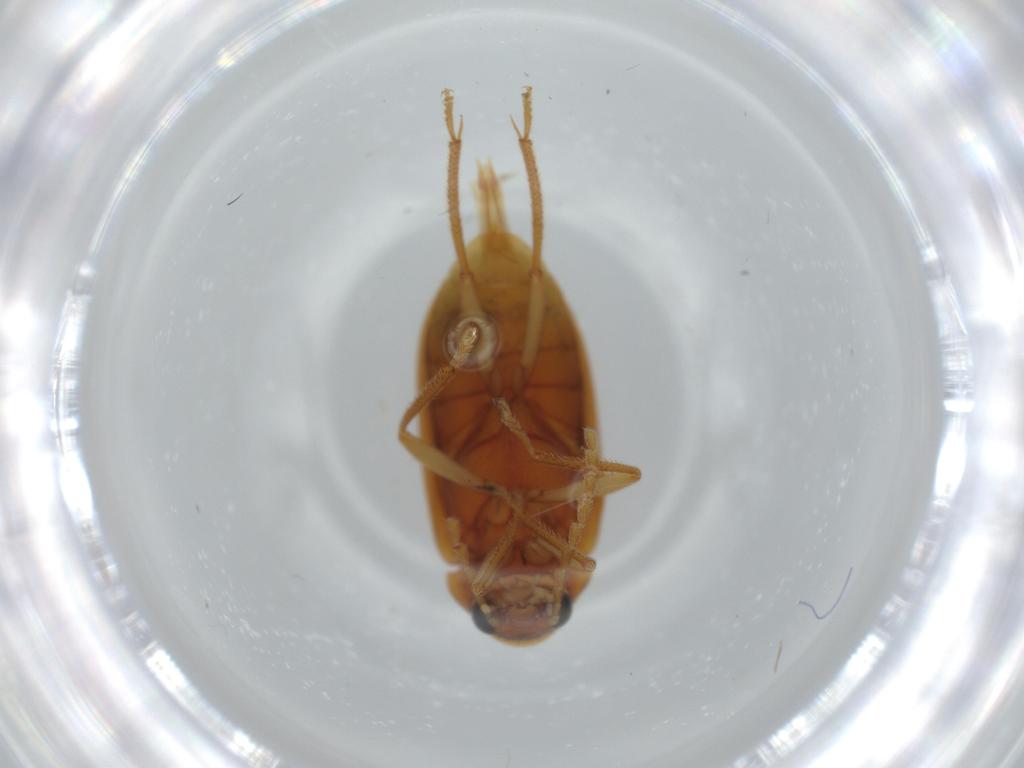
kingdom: Animalia
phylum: Arthropoda
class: Insecta
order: Coleoptera
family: Ptilodactylidae
